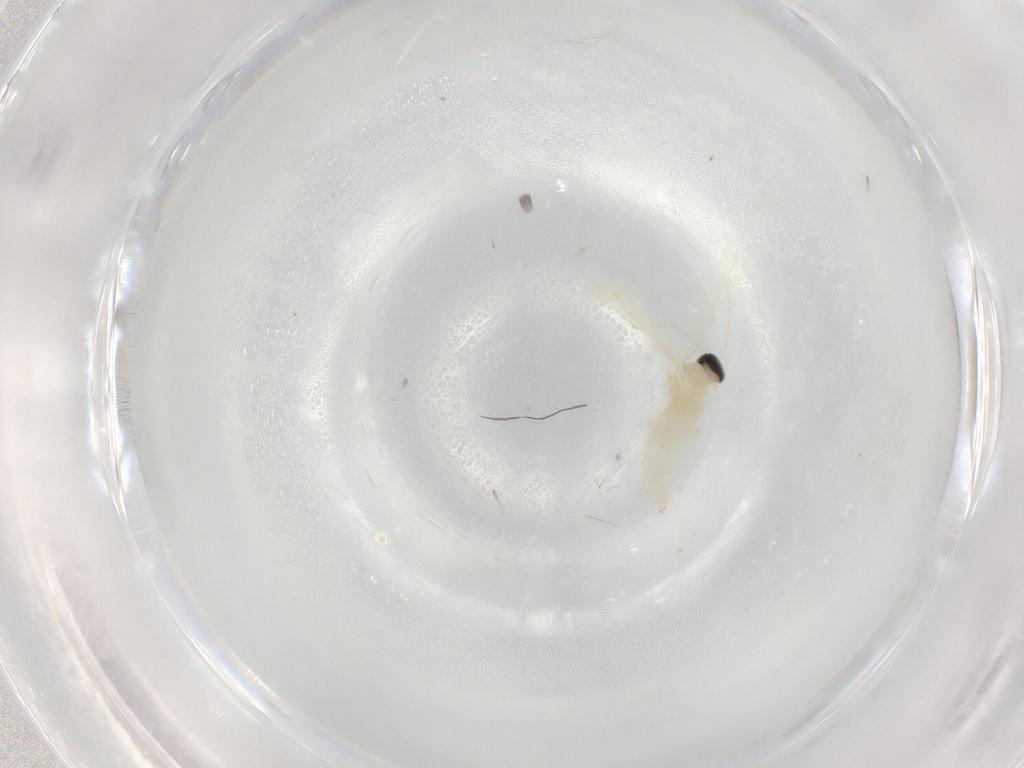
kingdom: Animalia
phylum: Arthropoda
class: Insecta
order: Diptera
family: Cecidomyiidae
